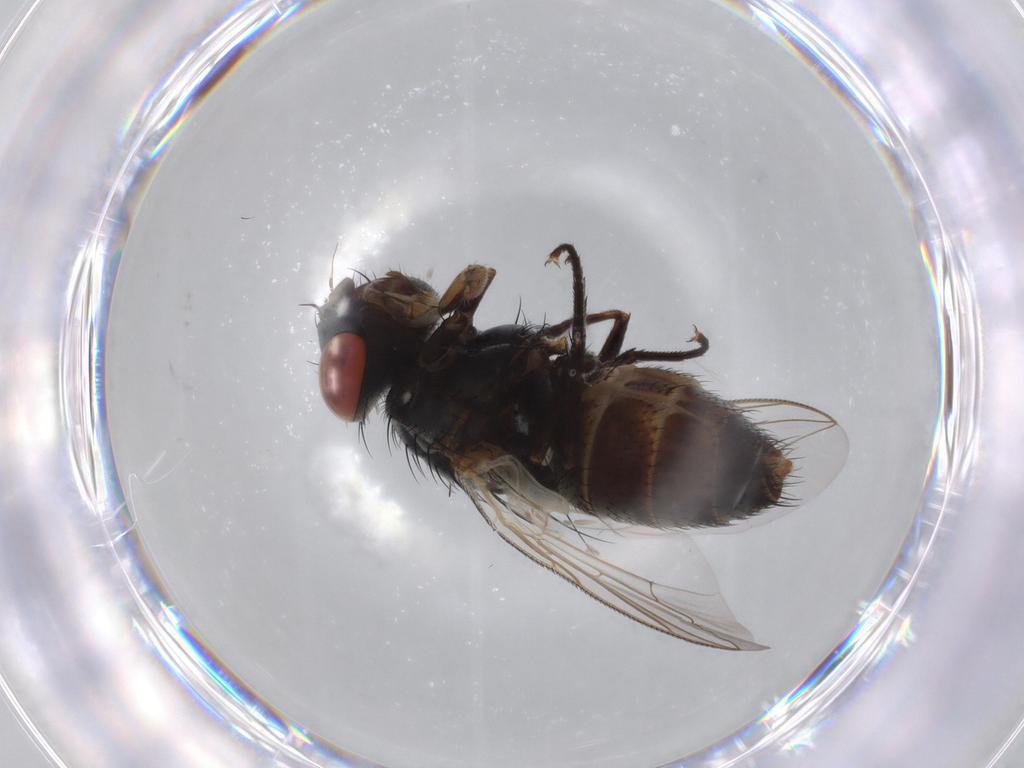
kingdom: Animalia
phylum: Arthropoda
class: Insecta
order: Diptera
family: Sarcophagidae
